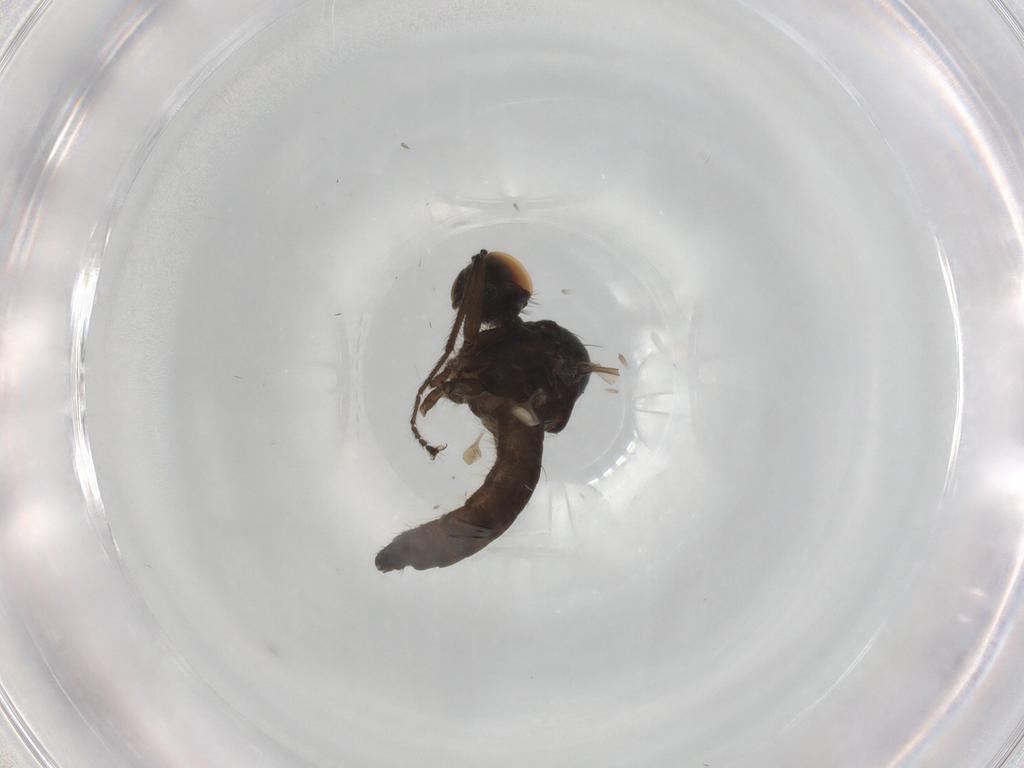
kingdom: Animalia
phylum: Arthropoda
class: Insecta
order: Diptera
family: Hybotidae
